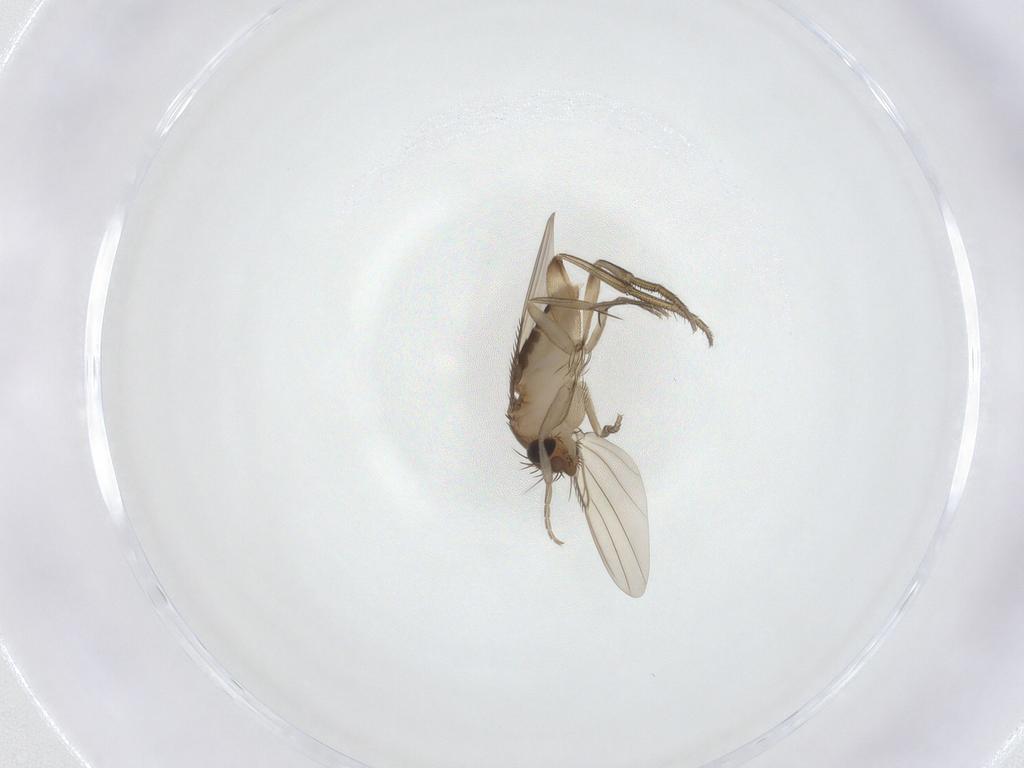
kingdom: Animalia
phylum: Arthropoda
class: Insecta
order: Diptera
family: Phoridae
